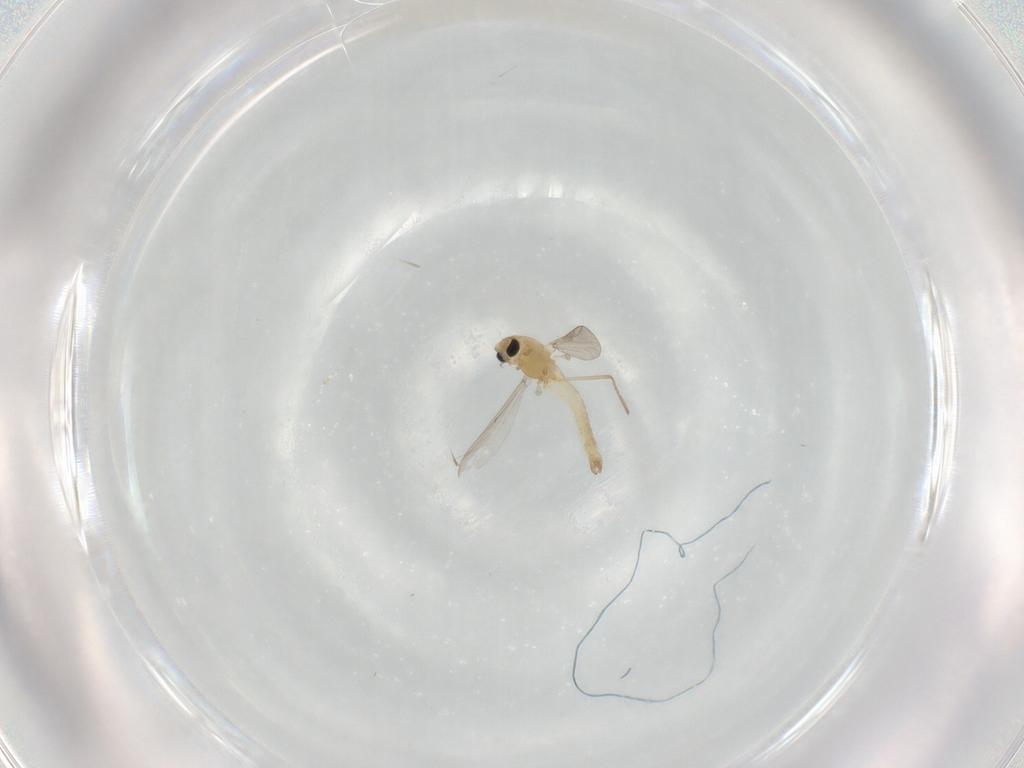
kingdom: Animalia
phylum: Arthropoda
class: Insecta
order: Diptera
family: Chironomidae
